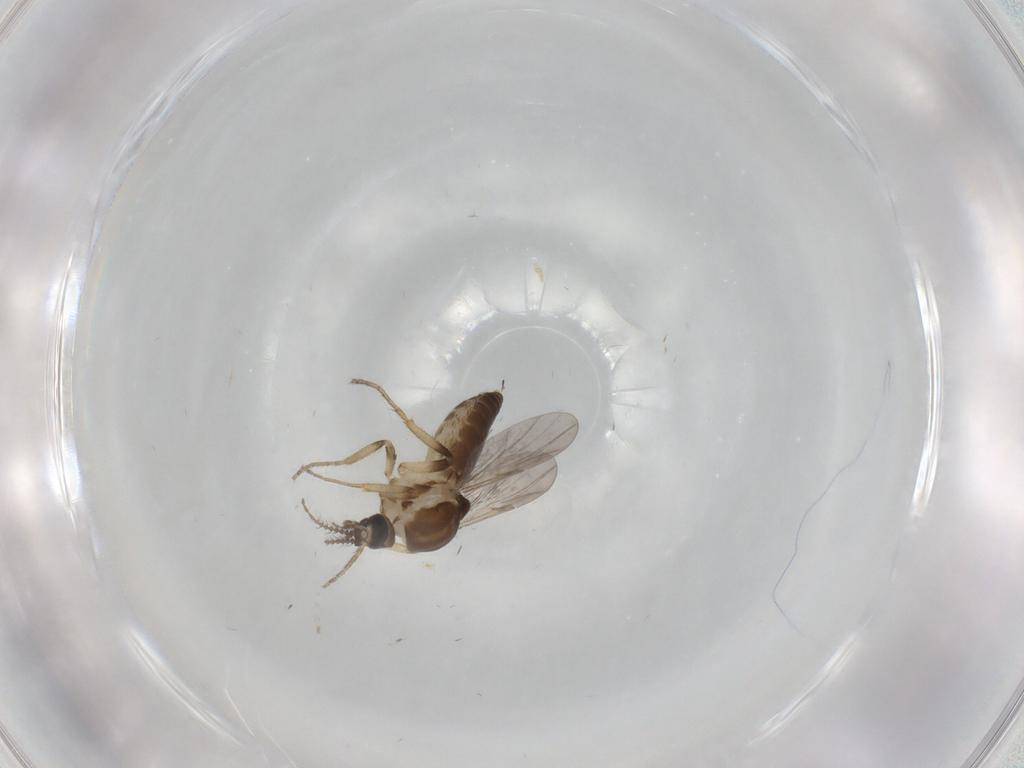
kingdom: Animalia
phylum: Arthropoda
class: Insecta
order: Diptera
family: Ceratopogonidae
